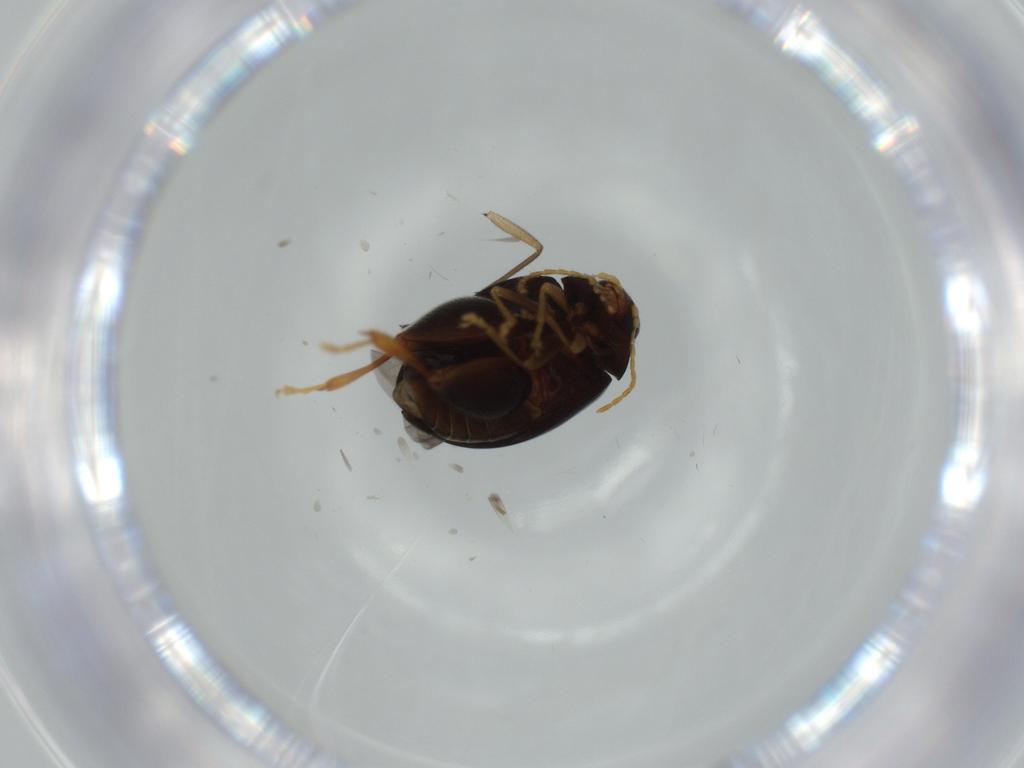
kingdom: Animalia
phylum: Arthropoda
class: Insecta
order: Coleoptera
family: Chrysomelidae
